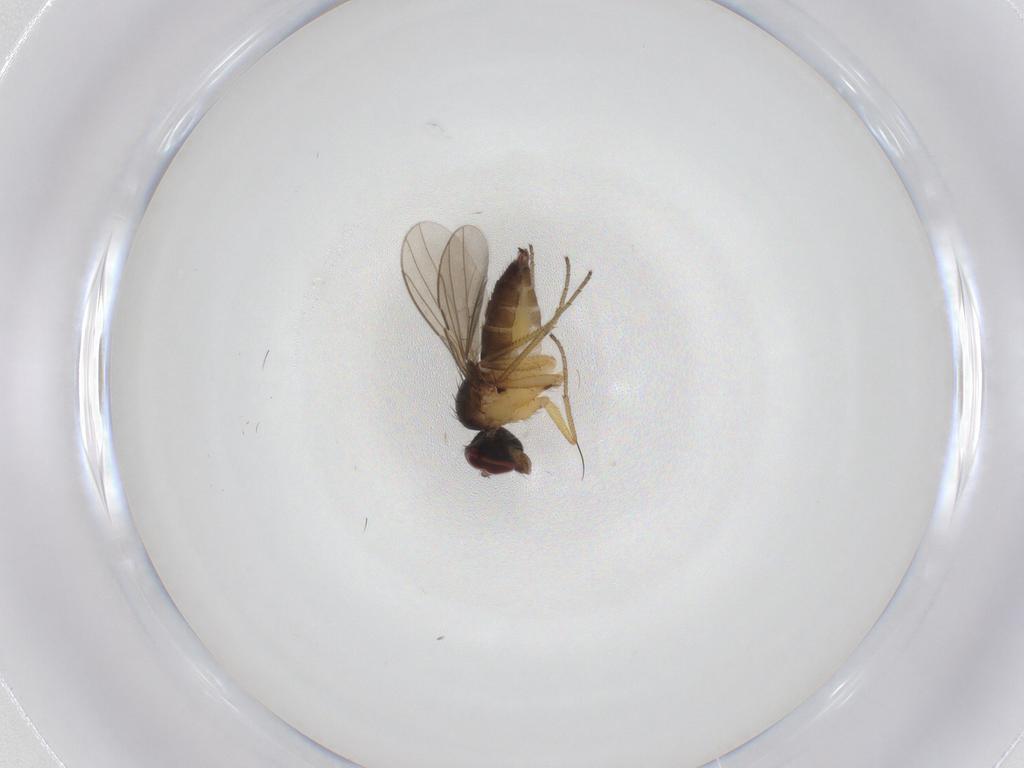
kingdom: Animalia
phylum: Arthropoda
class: Insecta
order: Diptera
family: Dolichopodidae
